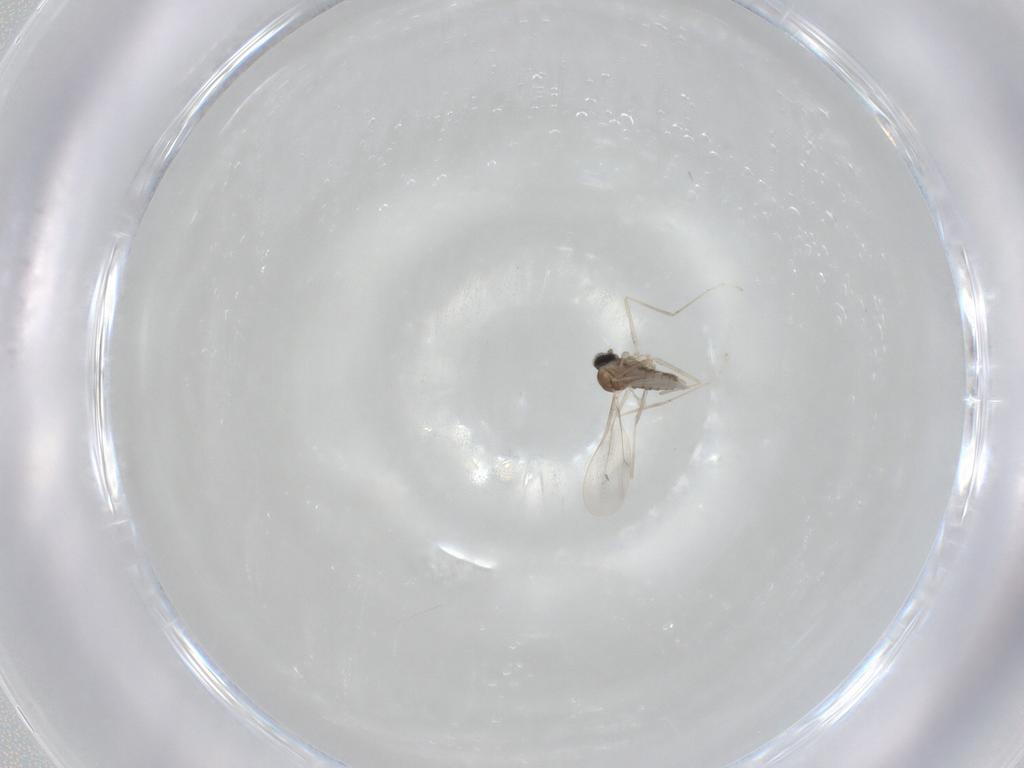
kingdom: Animalia
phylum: Arthropoda
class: Insecta
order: Diptera
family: Cecidomyiidae
